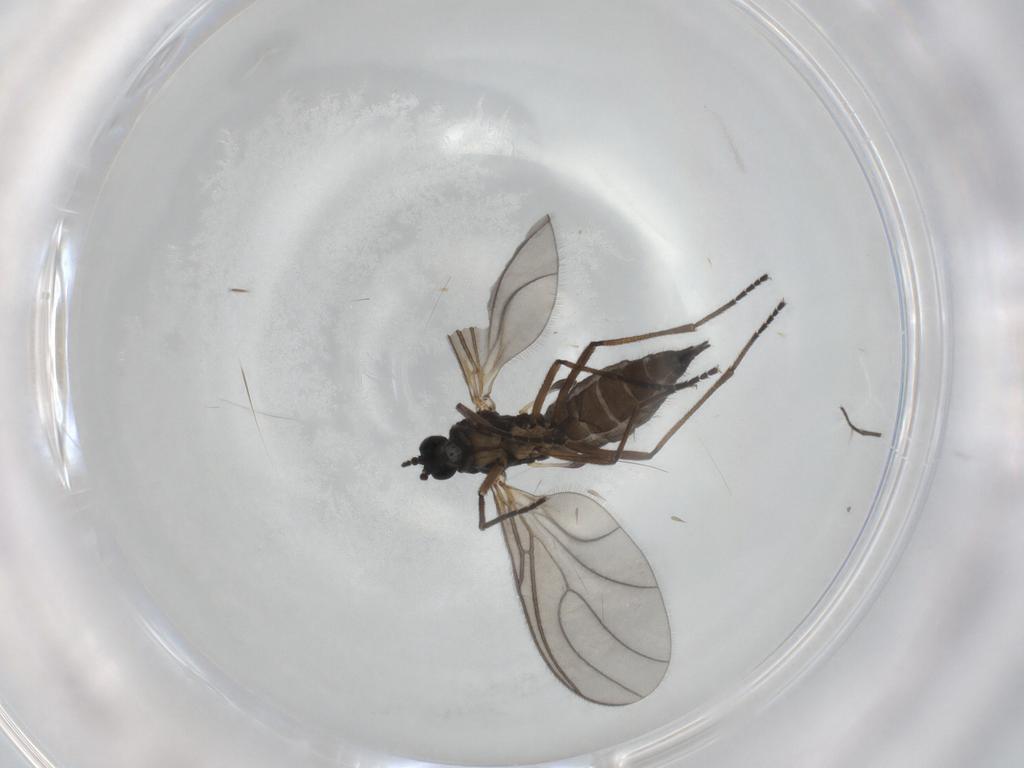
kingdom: Animalia
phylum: Arthropoda
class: Insecta
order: Diptera
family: Sciaridae
